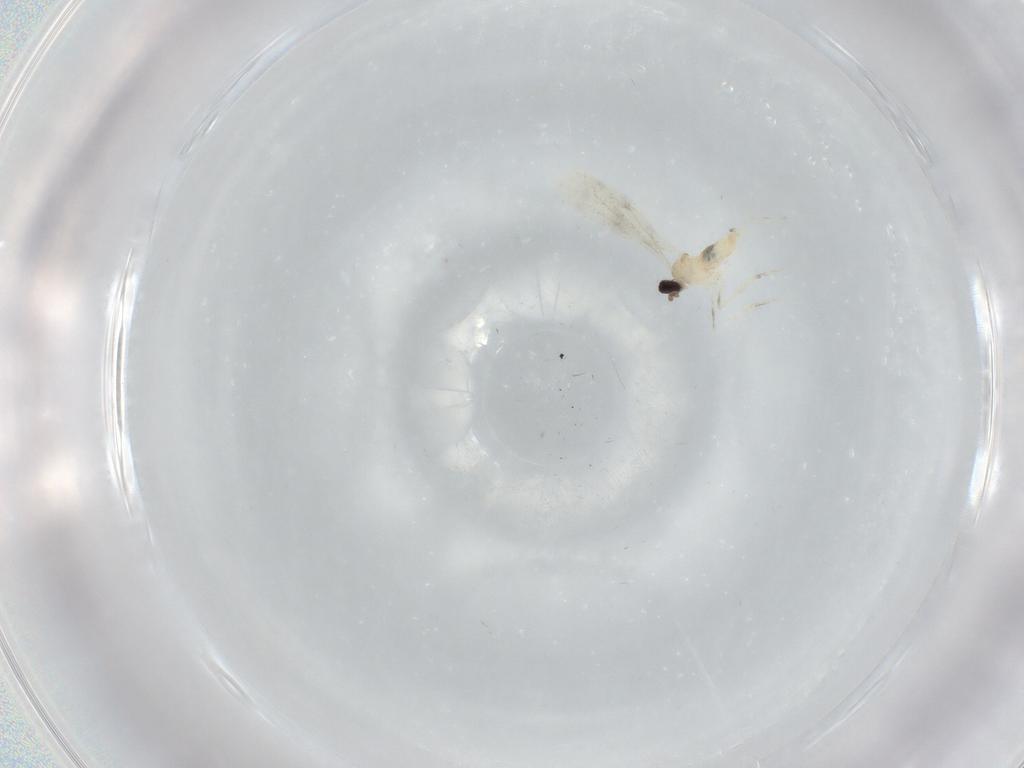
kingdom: Animalia
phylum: Arthropoda
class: Insecta
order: Diptera
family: Cecidomyiidae
